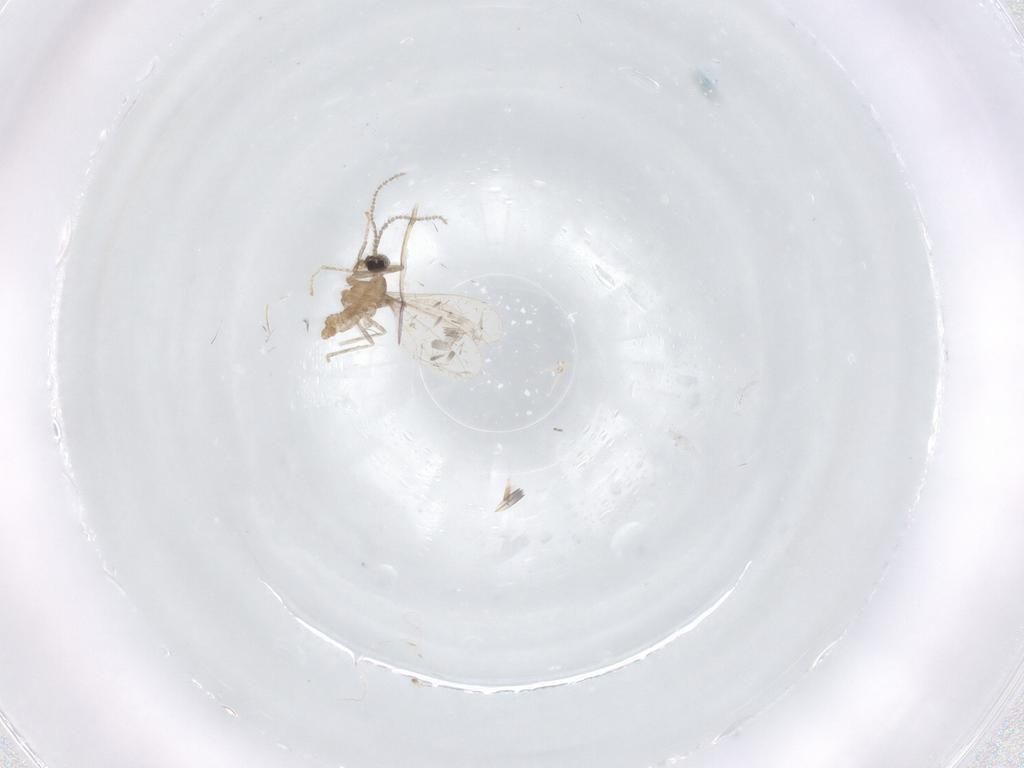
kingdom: Animalia
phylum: Arthropoda
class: Insecta
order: Diptera
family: Cecidomyiidae
